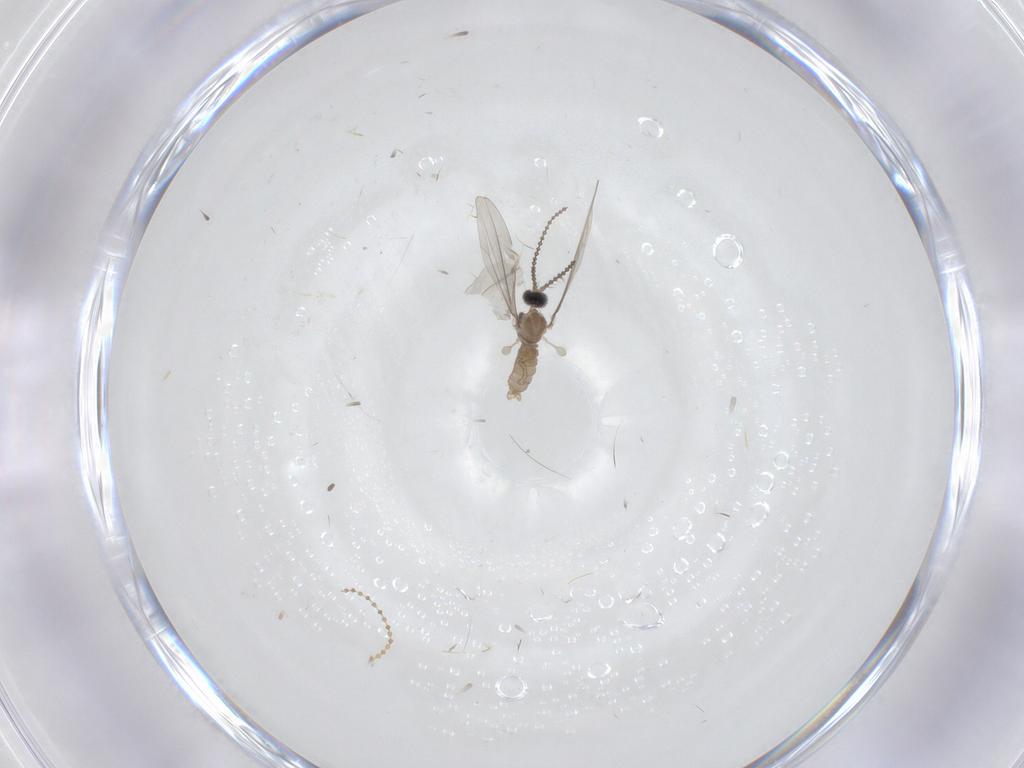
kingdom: Animalia
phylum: Arthropoda
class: Insecta
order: Diptera
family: Cecidomyiidae
